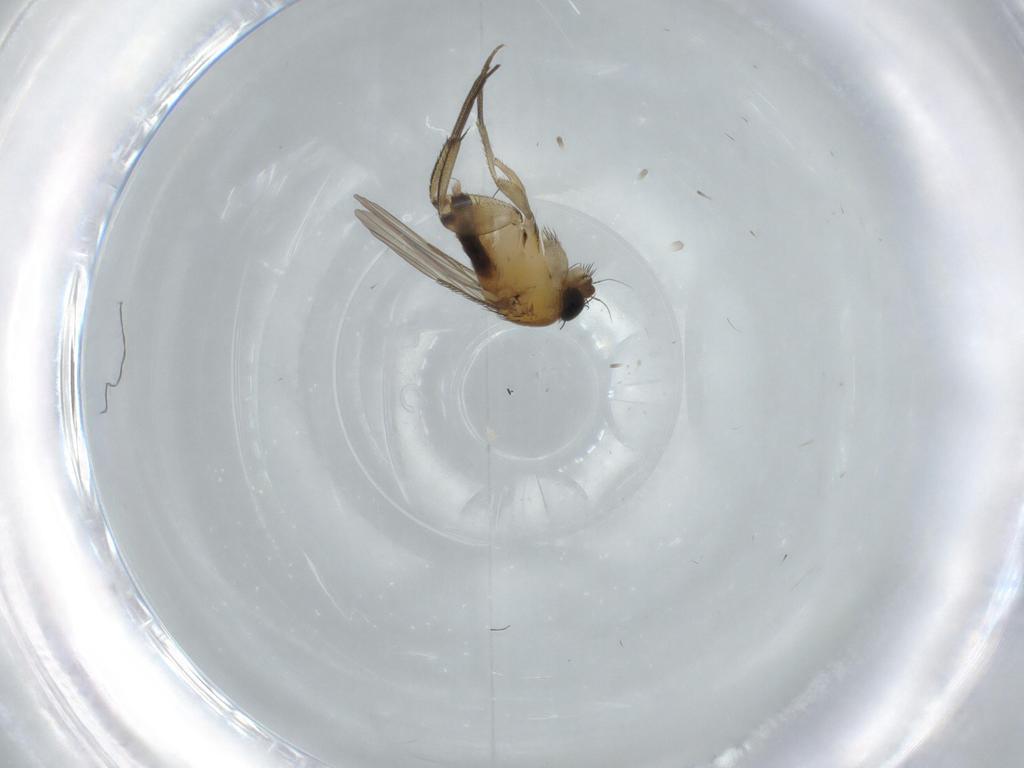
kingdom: Animalia
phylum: Arthropoda
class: Insecta
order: Diptera
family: Phoridae
